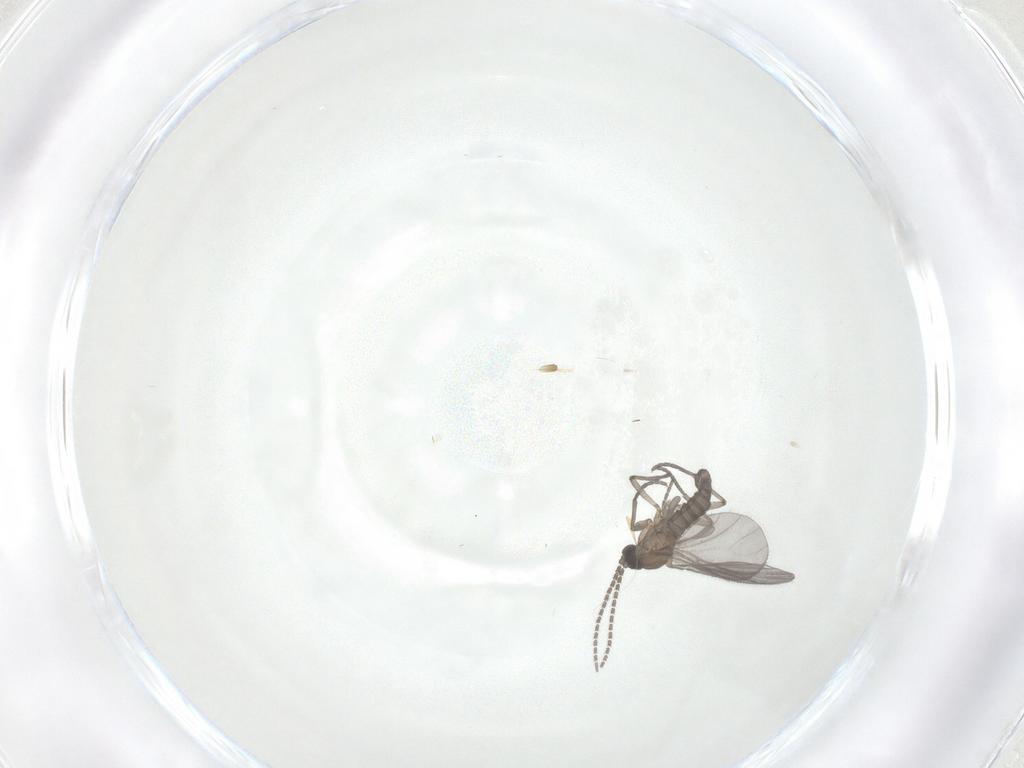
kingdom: Animalia
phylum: Arthropoda
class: Insecta
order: Diptera
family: Sciaridae
